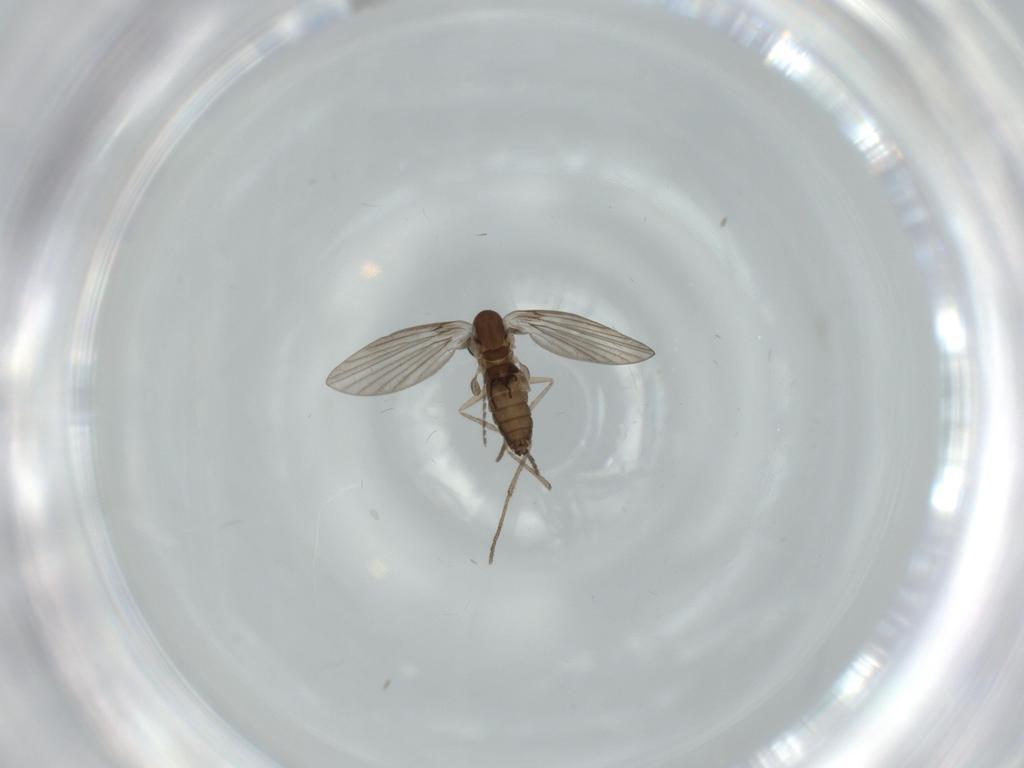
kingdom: Animalia
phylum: Arthropoda
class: Insecta
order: Diptera
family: Psychodidae
